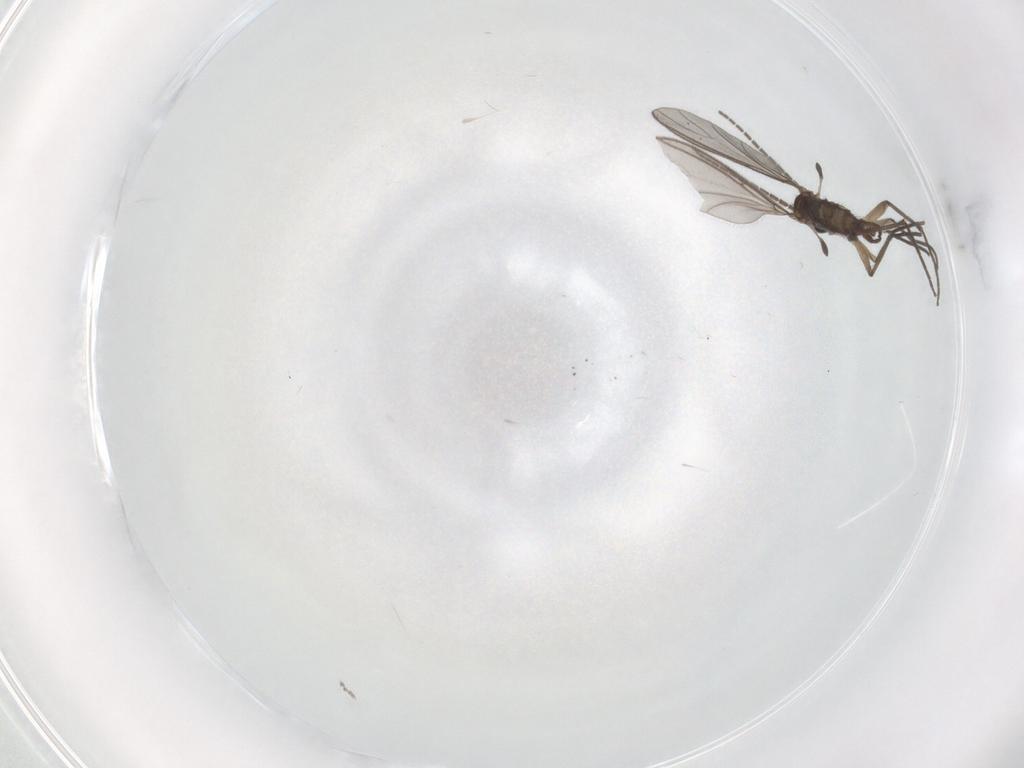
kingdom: Animalia
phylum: Arthropoda
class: Insecta
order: Diptera
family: Sciaridae
